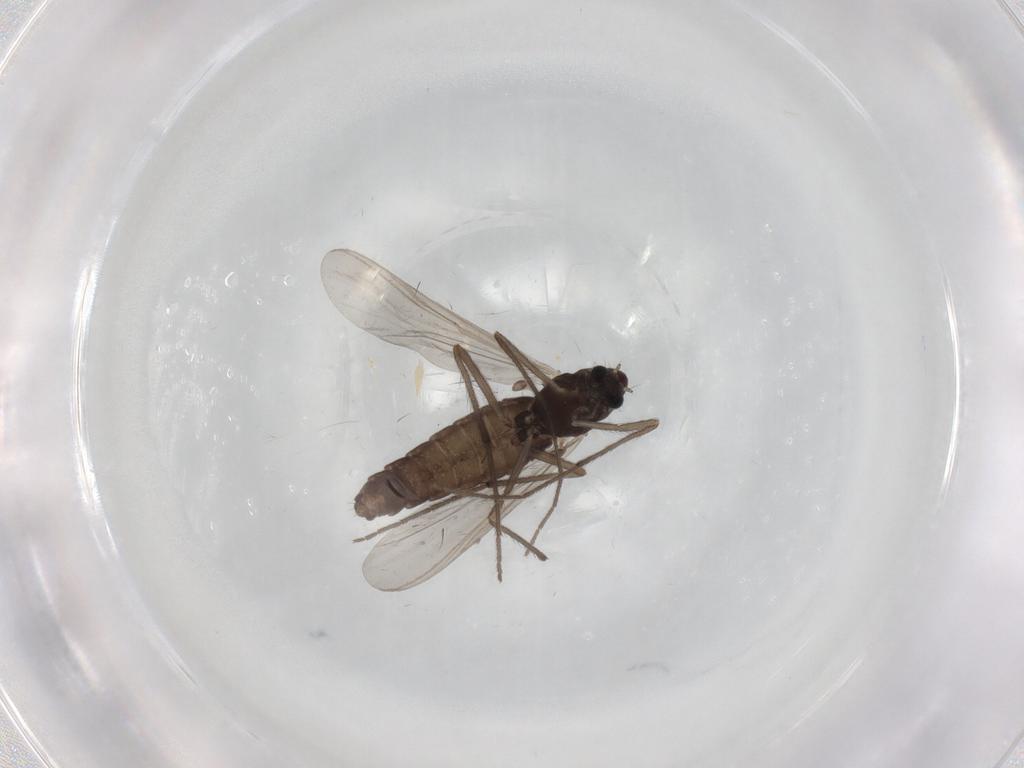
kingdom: Animalia
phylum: Arthropoda
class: Insecta
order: Diptera
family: Chironomidae
